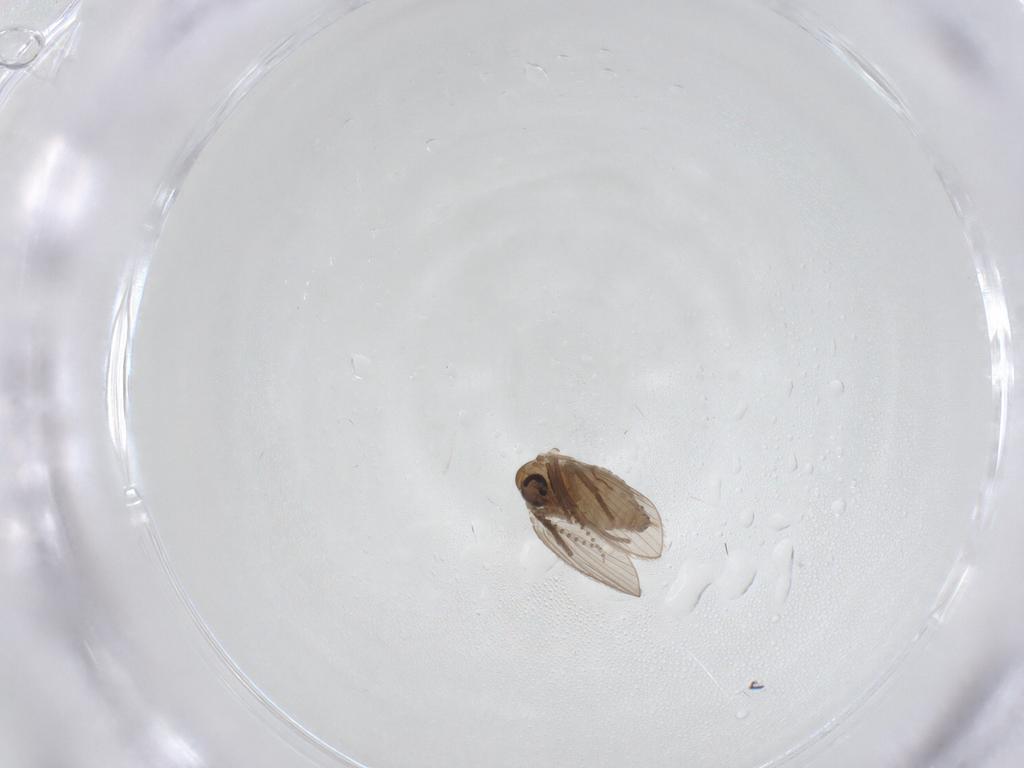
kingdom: Animalia
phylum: Arthropoda
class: Insecta
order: Diptera
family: Psychodidae
